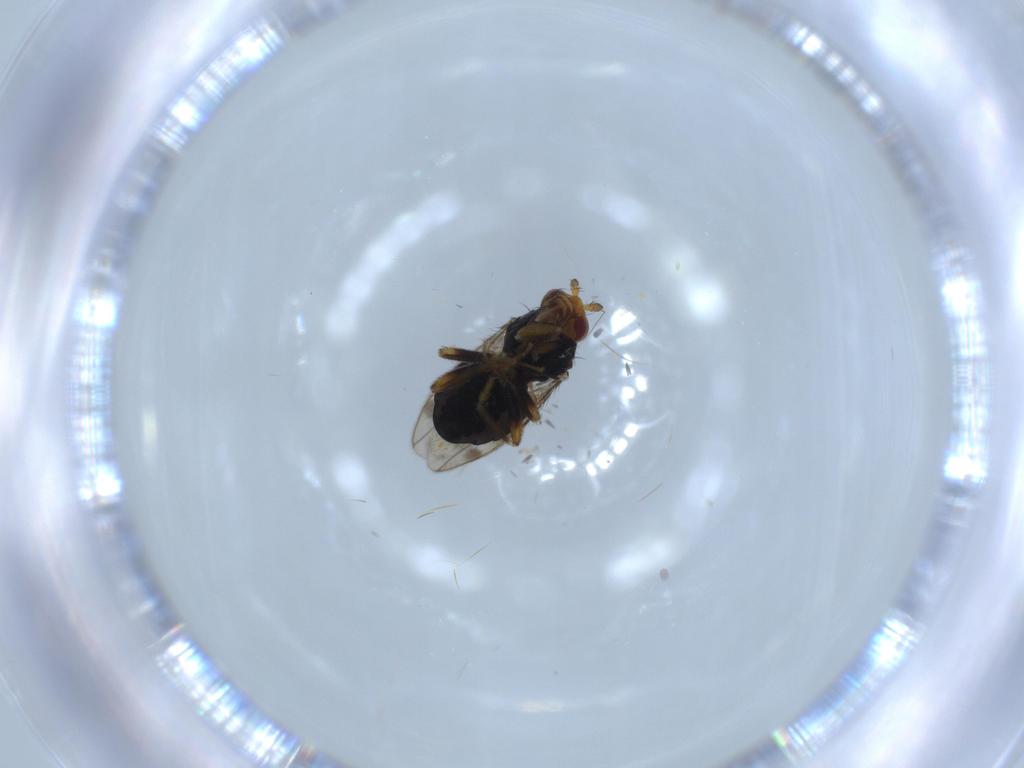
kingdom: Animalia
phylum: Arthropoda
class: Insecta
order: Diptera
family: Sphaeroceridae
